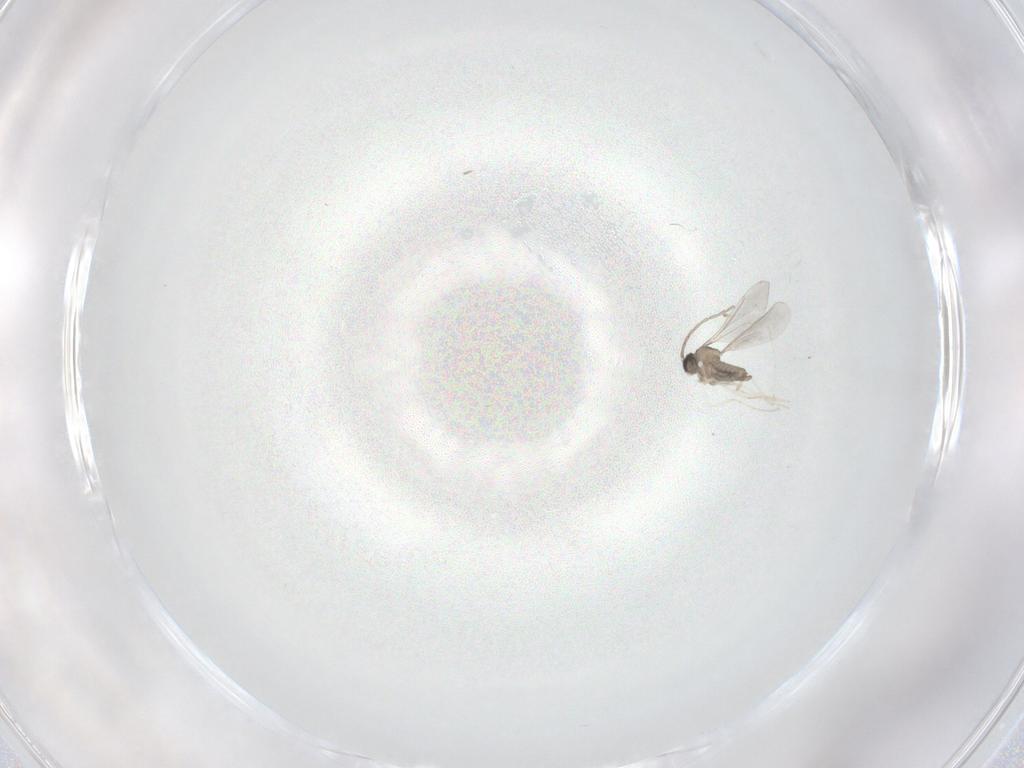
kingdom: Animalia
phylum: Arthropoda
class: Insecta
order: Diptera
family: Cecidomyiidae
